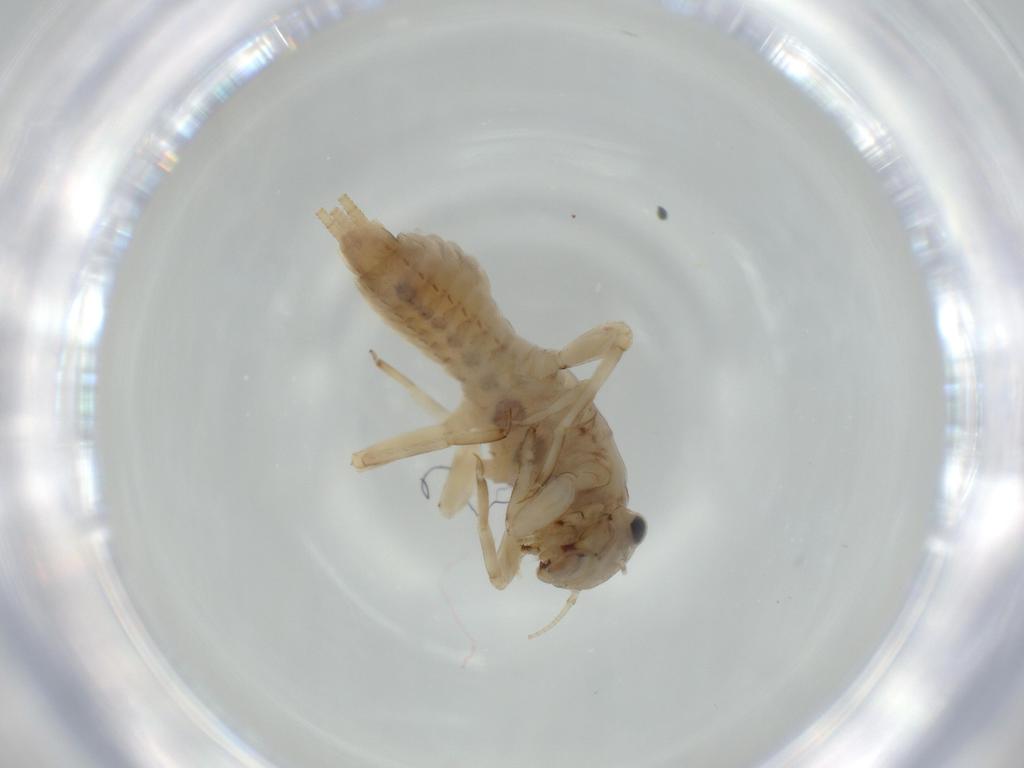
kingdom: Animalia
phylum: Arthropoda
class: Insecta
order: Ephemeroptera
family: Ephemerellidae
